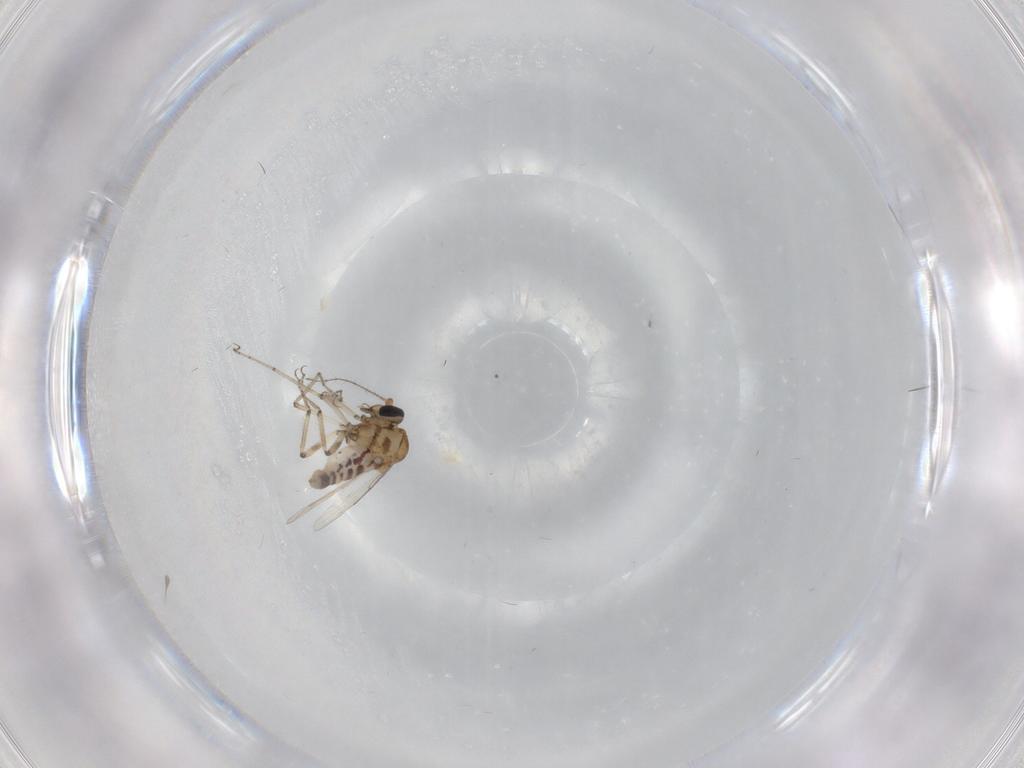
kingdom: Animalia
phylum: Arthropoda
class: Insecta
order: Diptera
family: Ceratopogonidae
